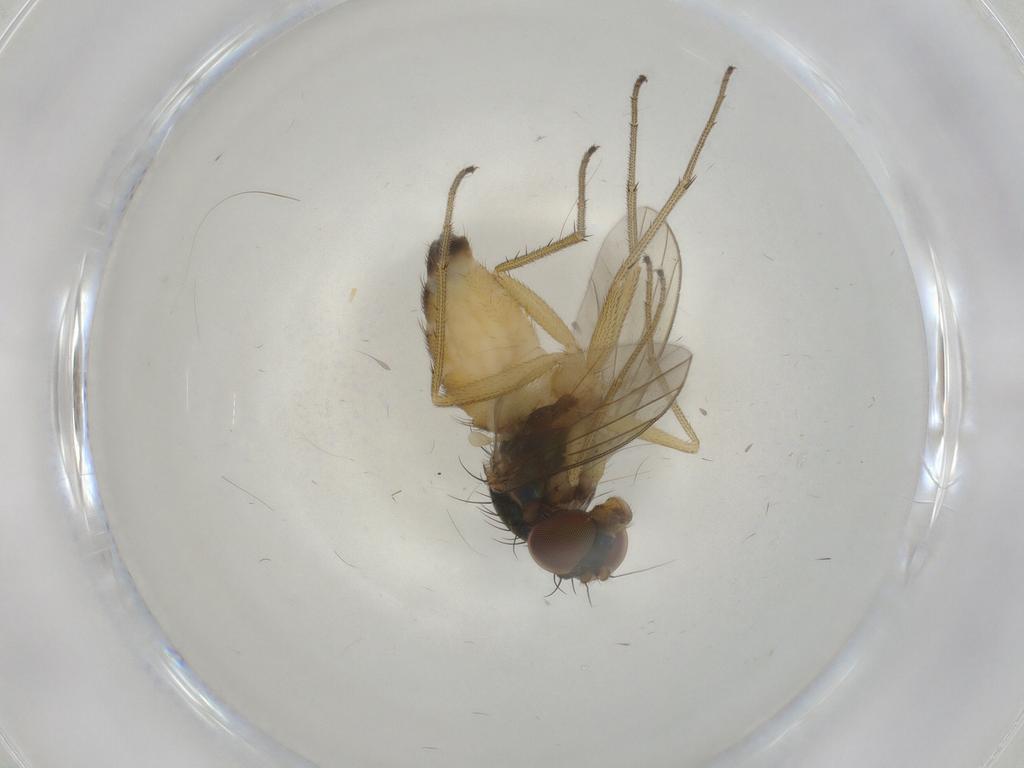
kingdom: Animalia
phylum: Arthropoda
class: Insecta
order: Diptera
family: Dolichopodidae
